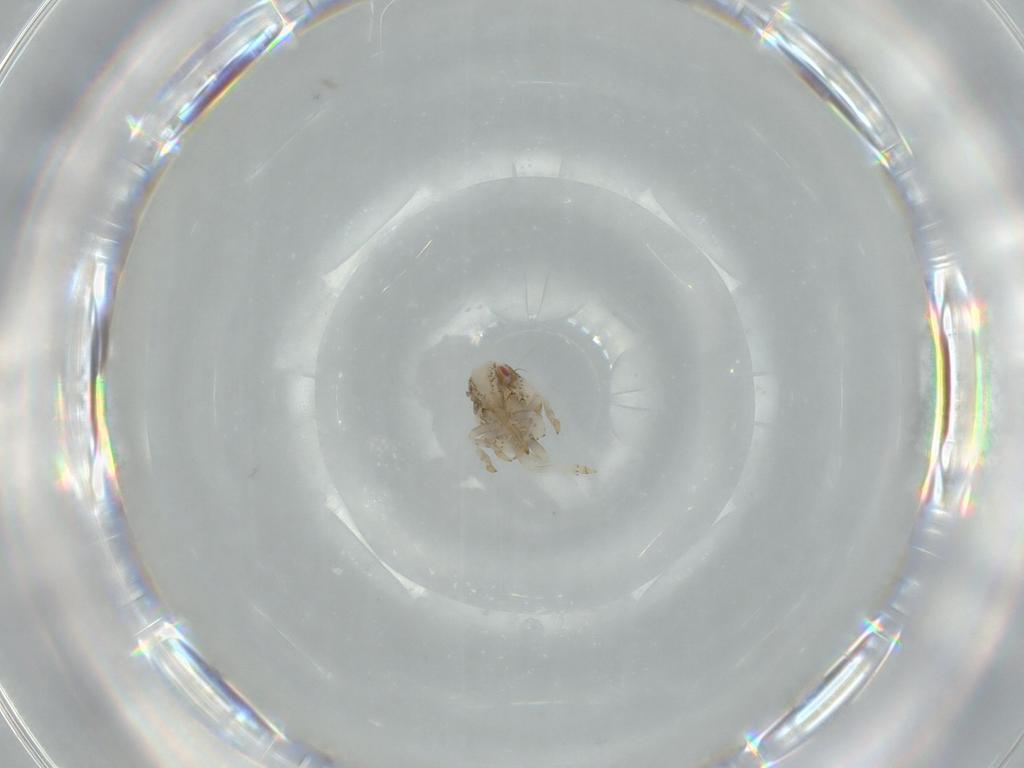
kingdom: Animalia
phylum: Arthropoda
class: Insecta
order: Hemiptera
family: Acanaloniidae
